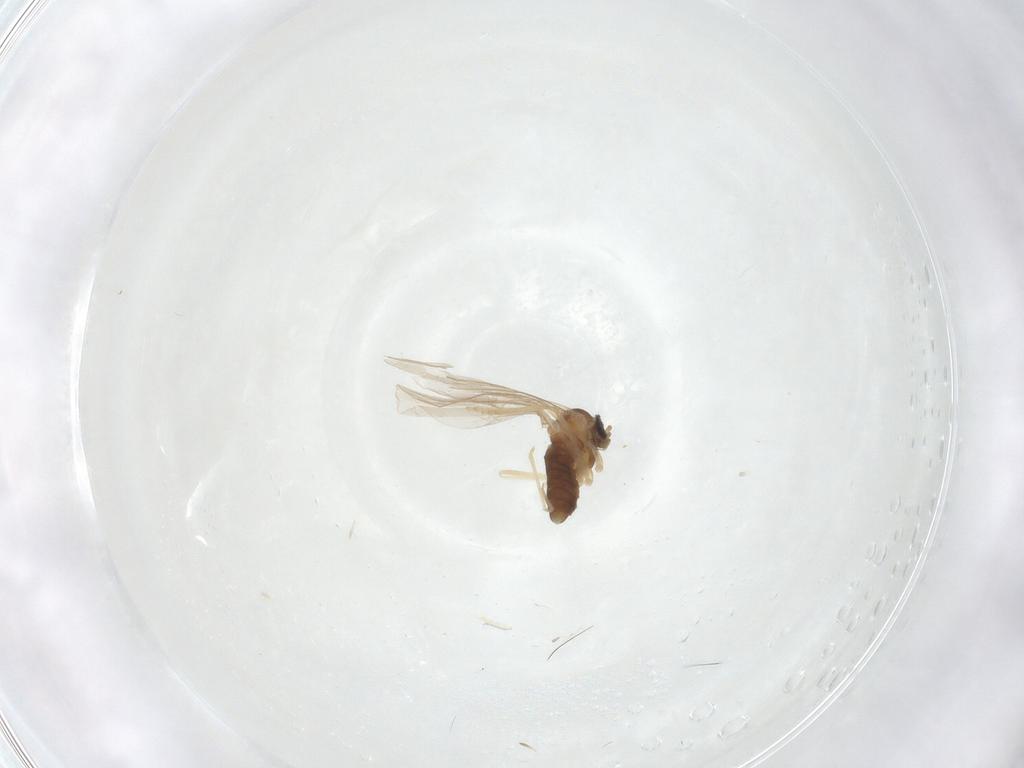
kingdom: Animalia
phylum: Arthropoda
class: Insecta
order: Diptera
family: Cecidomyiidae
